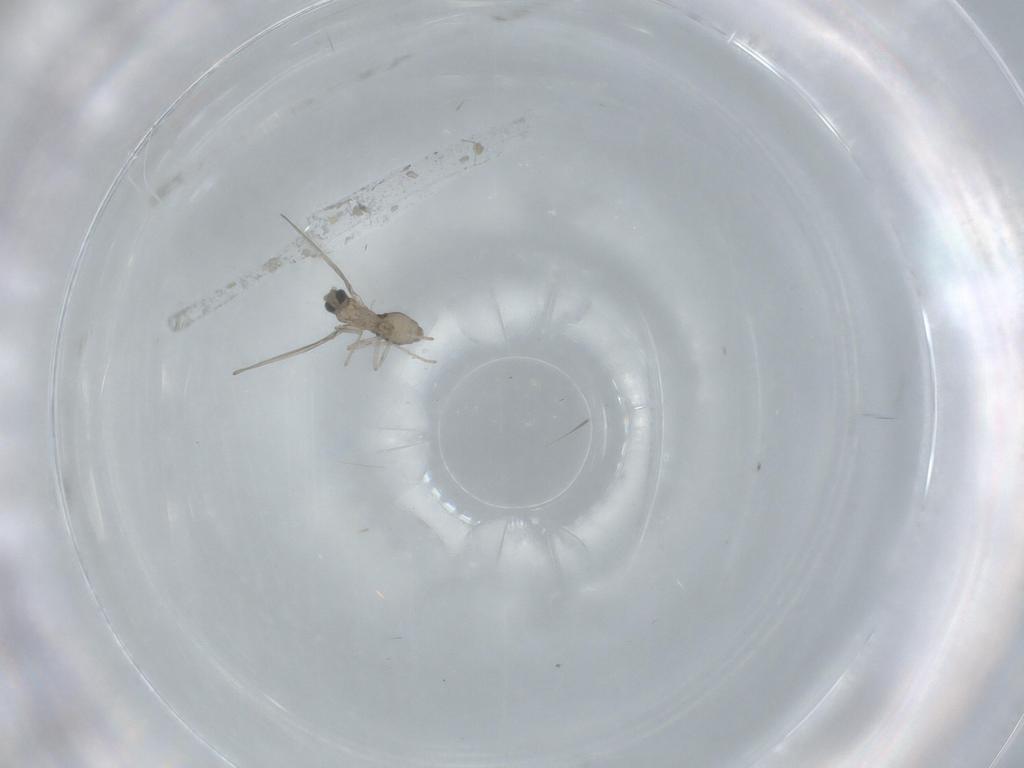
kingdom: Animalia
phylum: Arthropoda
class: Insecta
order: Diptera
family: Cecidomyiidae
